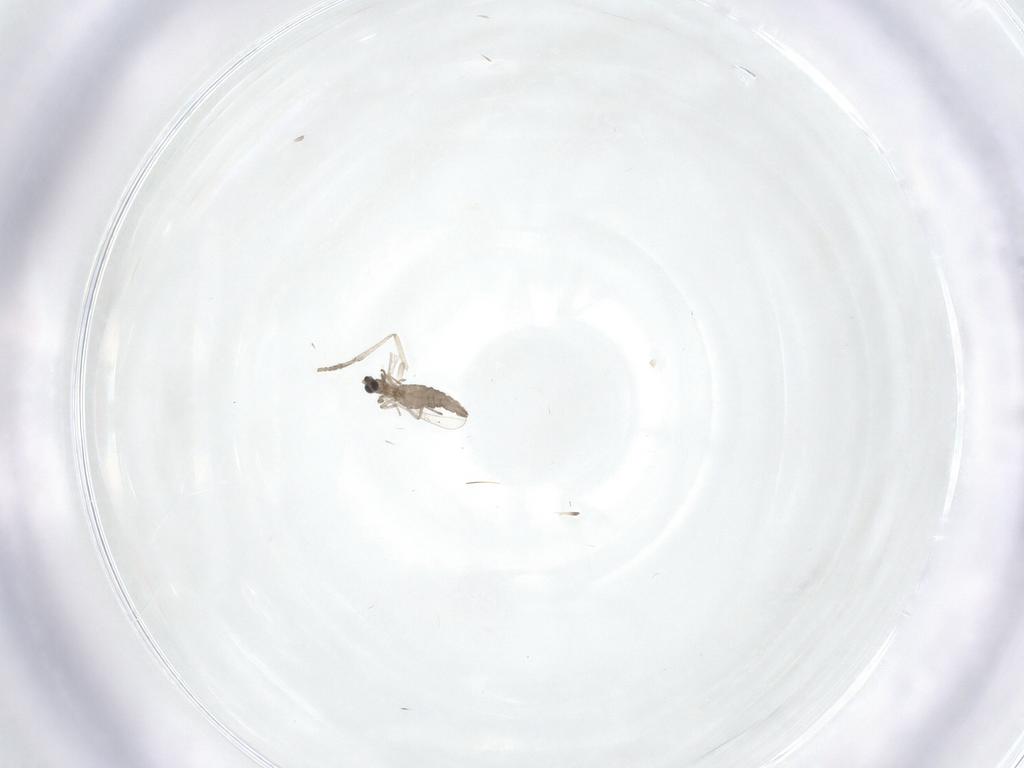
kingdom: Animalia
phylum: Arthropoda
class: Insecta
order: Diptera
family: Cecidomyiidae
